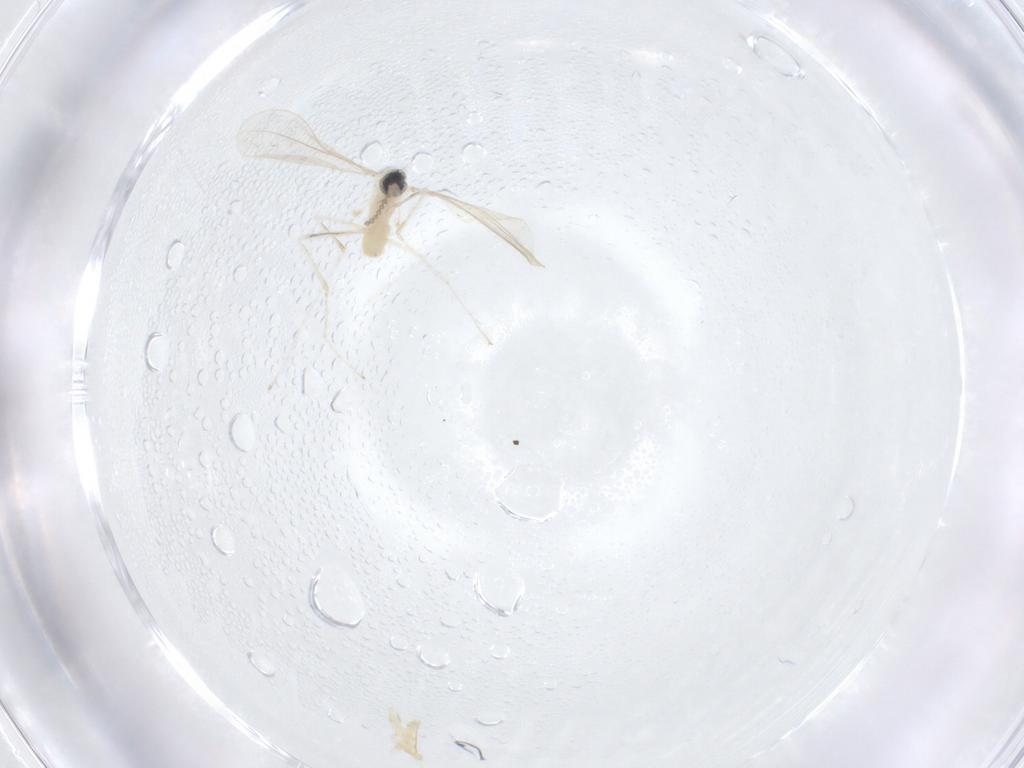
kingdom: Animalia
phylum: Arthropoda
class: Insecta
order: Diptera
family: Cecidomyiidae
